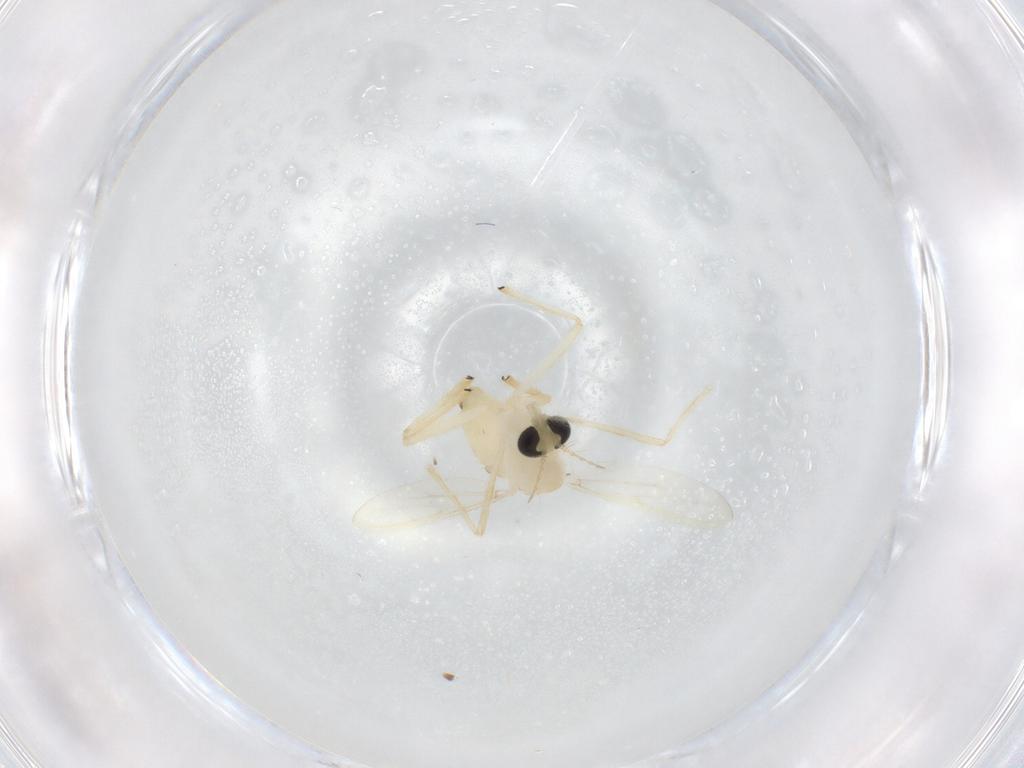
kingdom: Animalia
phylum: Arthropoda
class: Insecta
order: Diptera
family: Chironomidae
